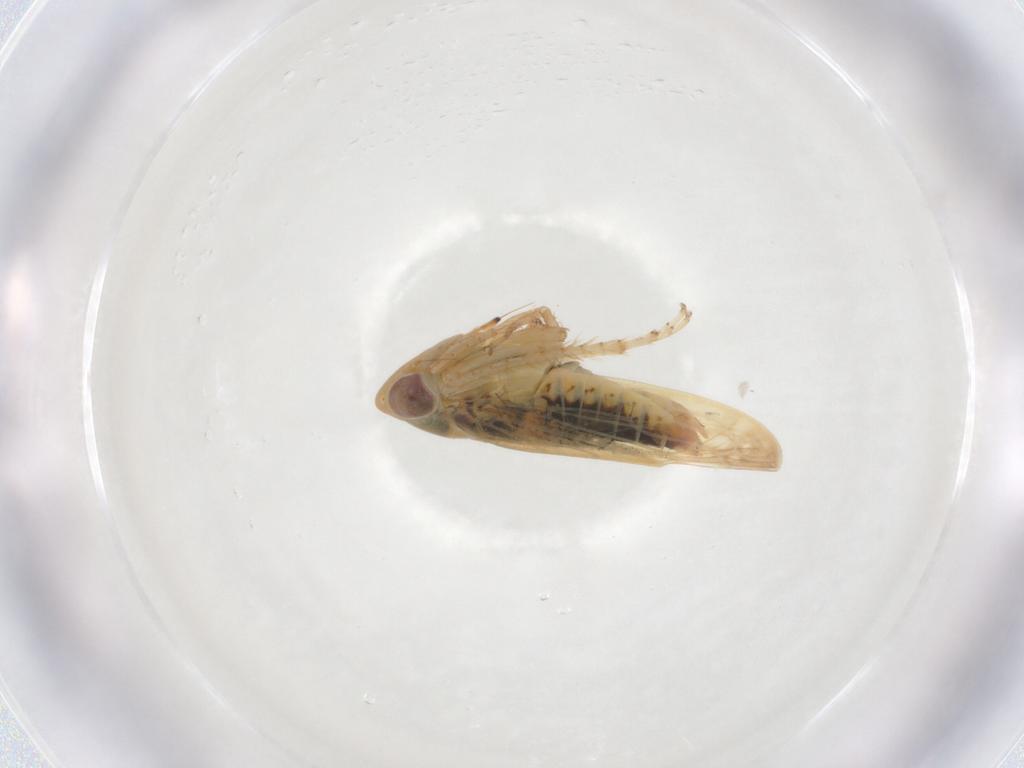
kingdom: Animalia
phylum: Arthropoda
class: Insecta
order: Hemiptera
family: Cicadellidae
